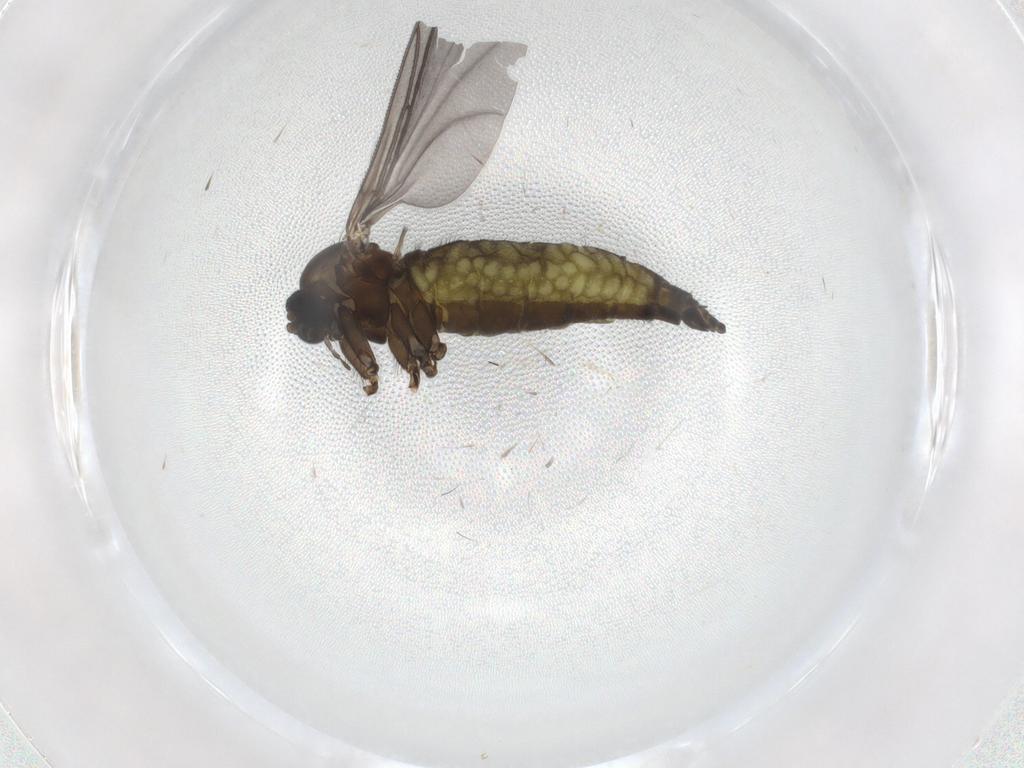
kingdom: Animalia
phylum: Arthropoda
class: Insecta
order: Diptera
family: Sciaridae
